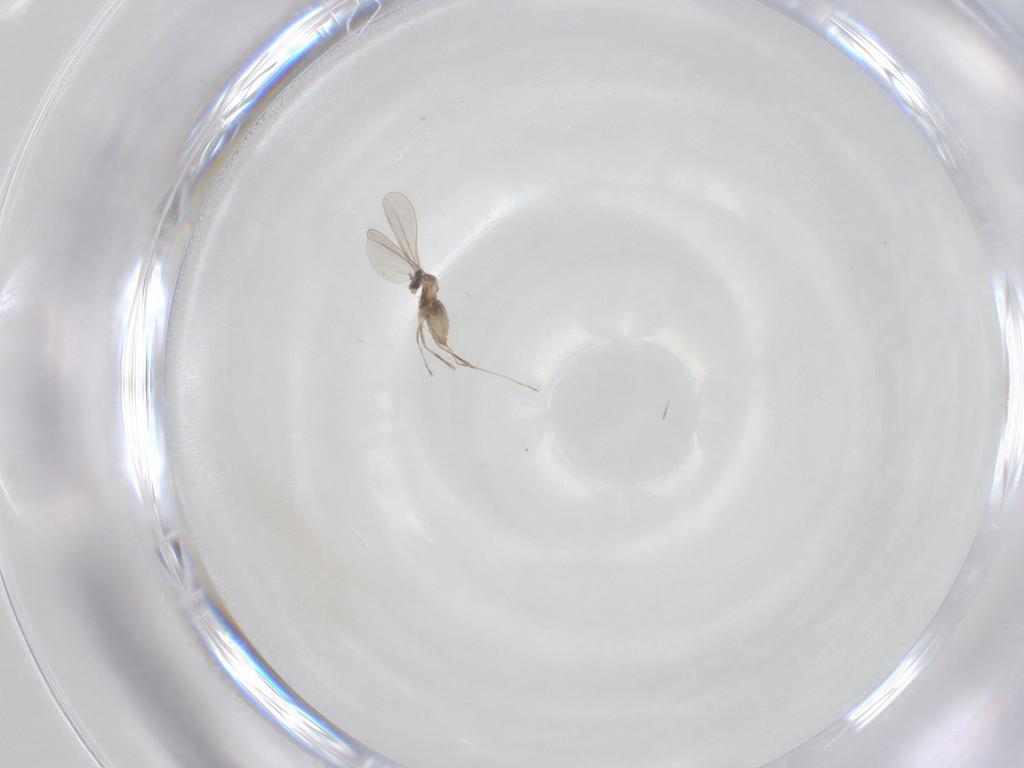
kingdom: Animalia
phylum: Arthropoda
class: Insecta
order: Diptera
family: Cecidomyiidae
